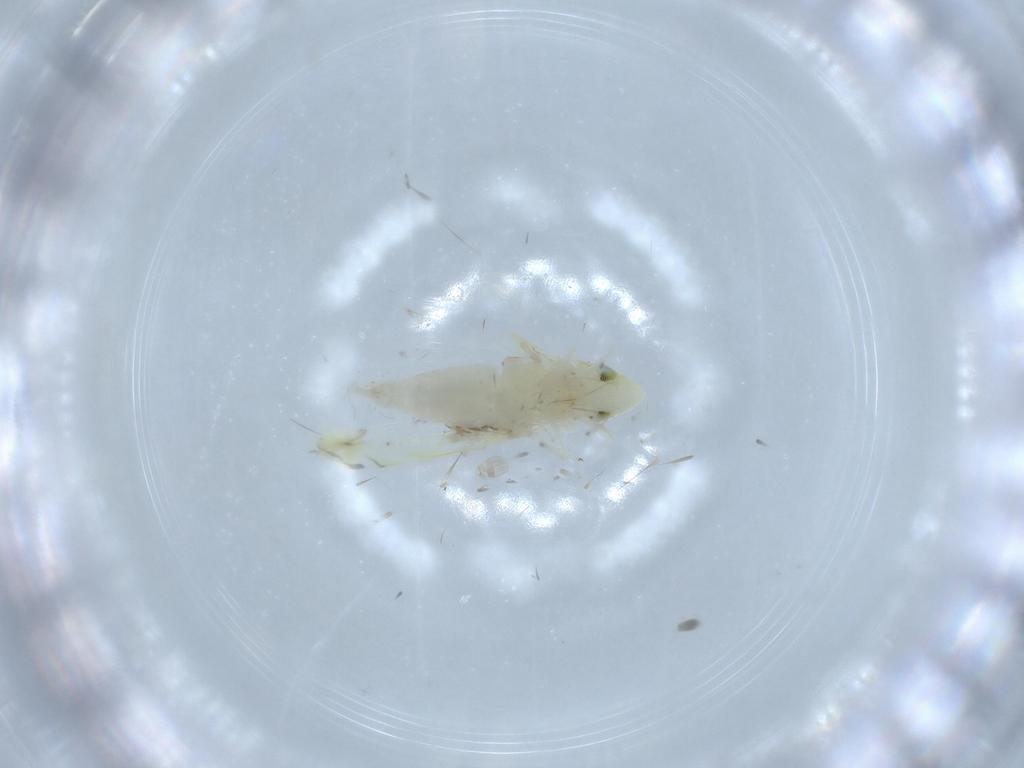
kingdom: Animalia
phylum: Arthropoda
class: Insecta
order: Hemiptera
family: Cicadellidae
